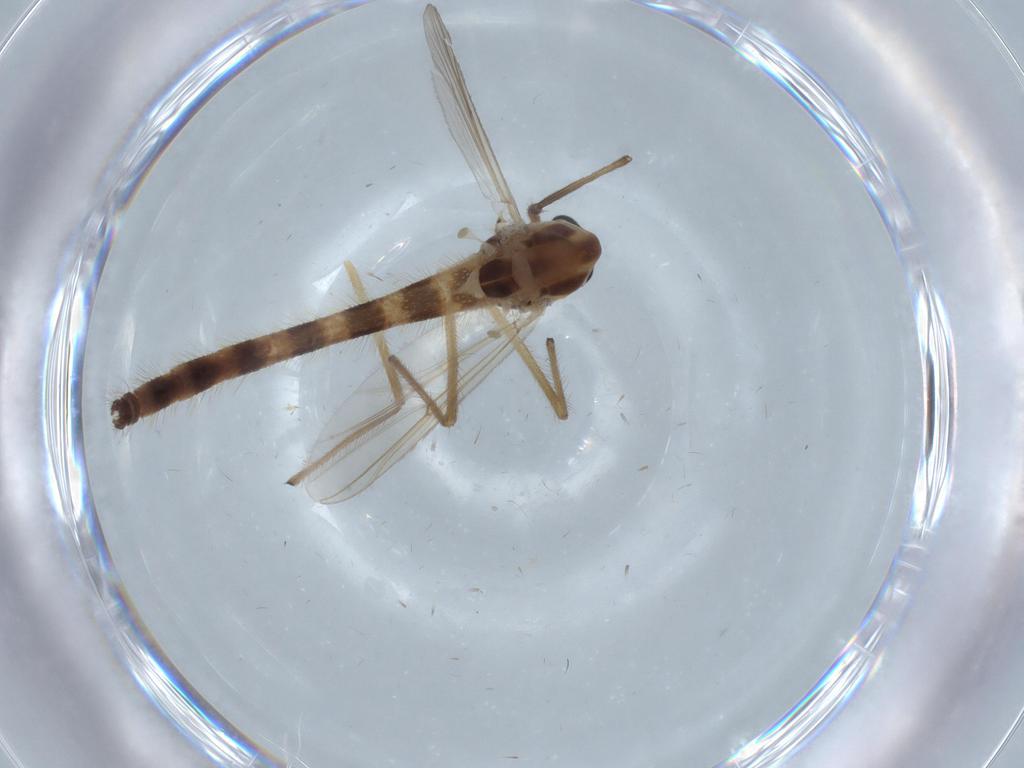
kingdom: Animalia
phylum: Arthropoda
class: Insecta
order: Diptera
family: Chironomidae
